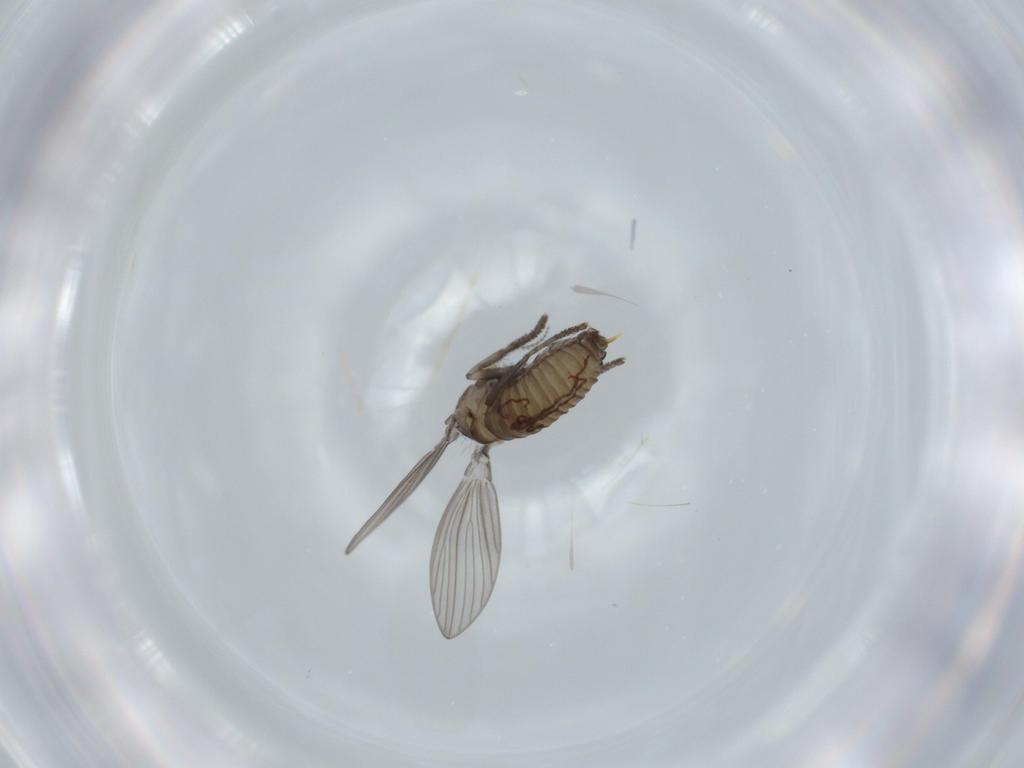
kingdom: Animalia
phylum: Arthropoda
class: Insecta
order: Diptera
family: Psychodidae
